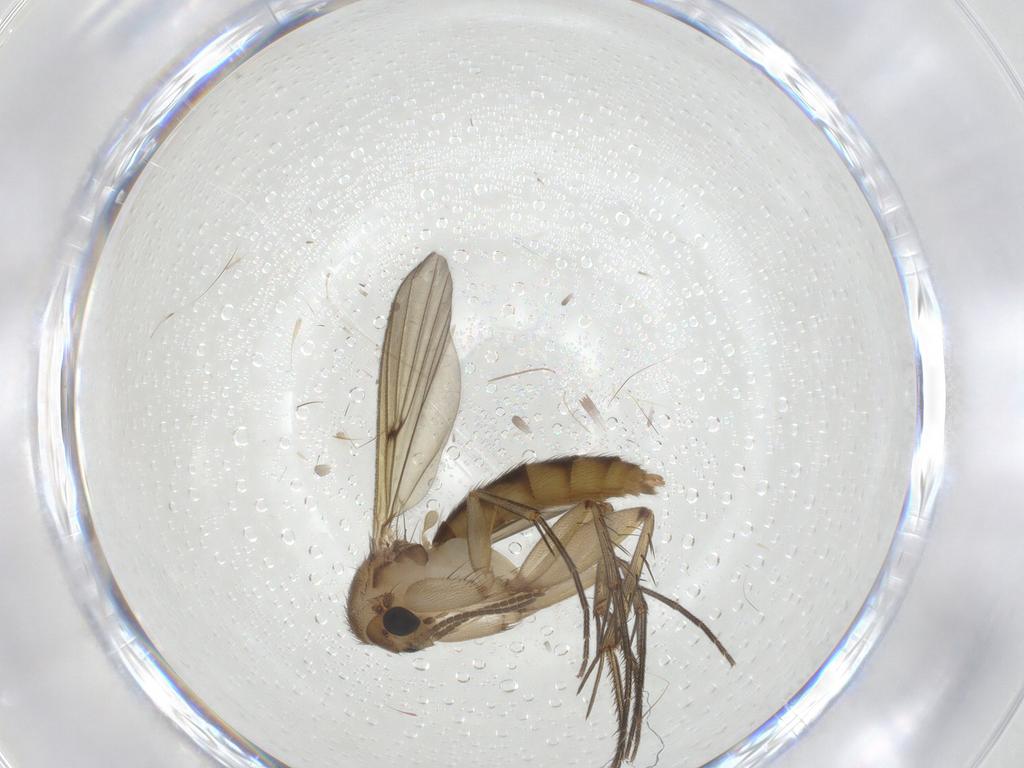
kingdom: Animalia
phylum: Arthropoda
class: Insecta
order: Diptera
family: Mycetophilidae
